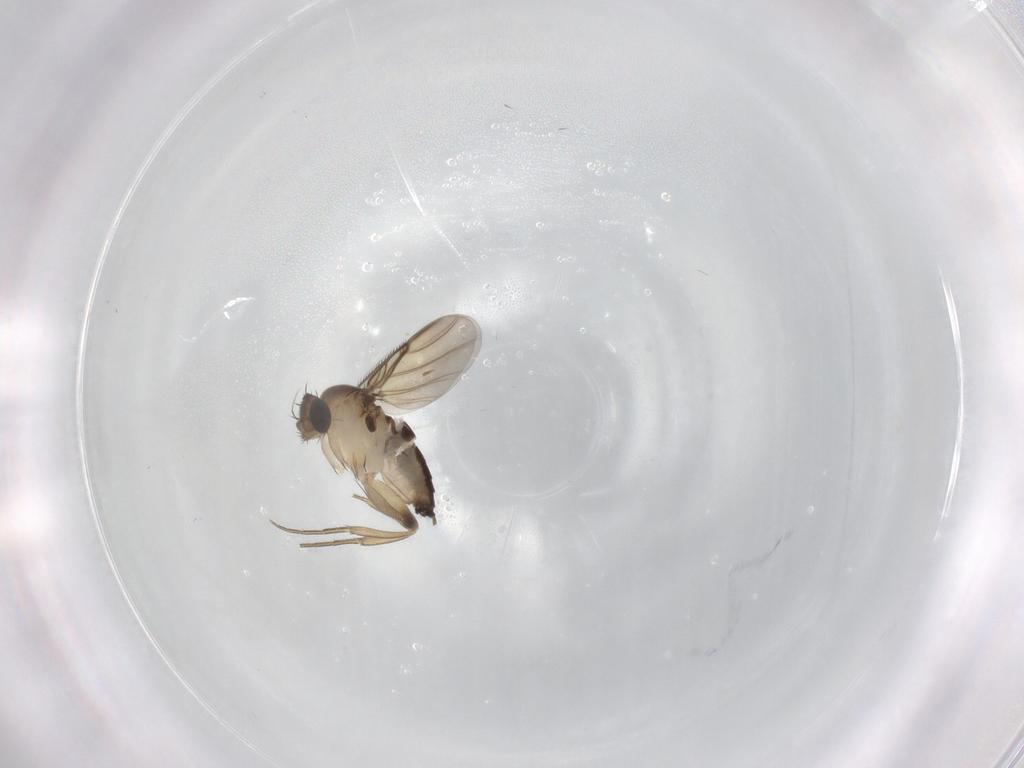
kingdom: Animalia
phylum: Arthropoda
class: Insecta
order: Diptera
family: Phoridae
